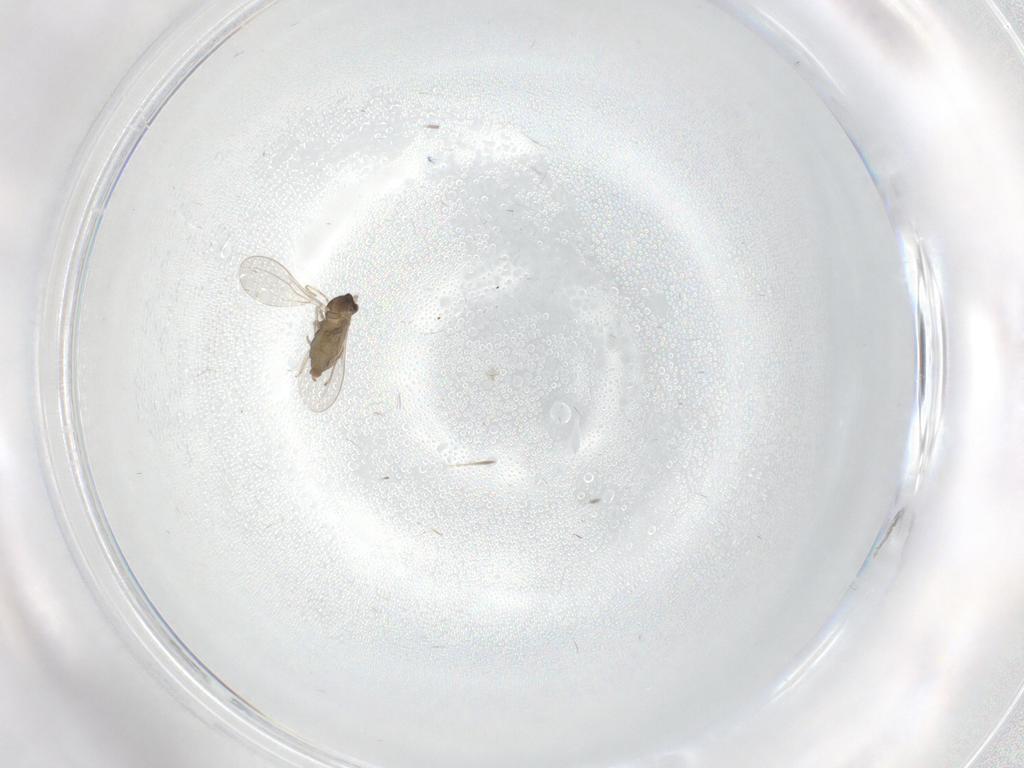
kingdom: Animalia
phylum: Arthropoda
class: Insecta
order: Diptera
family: Cecidomyiidae
